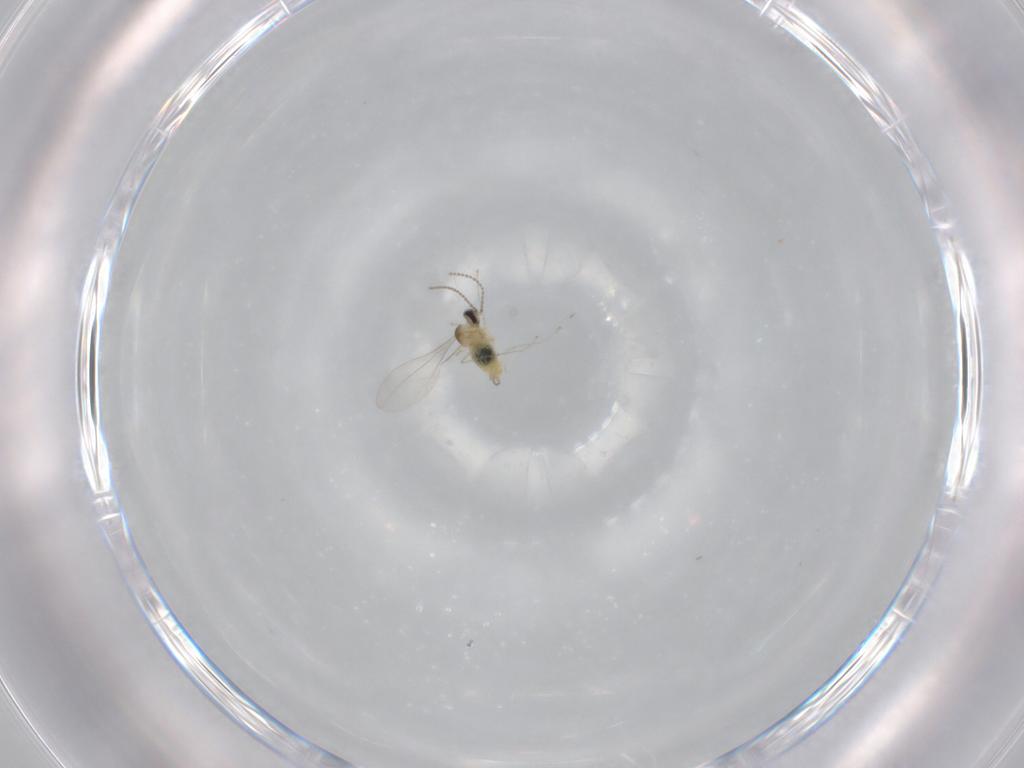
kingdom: Animalia
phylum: Arthropoda
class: Insecta
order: Diptera
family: Cecidomyiidae
